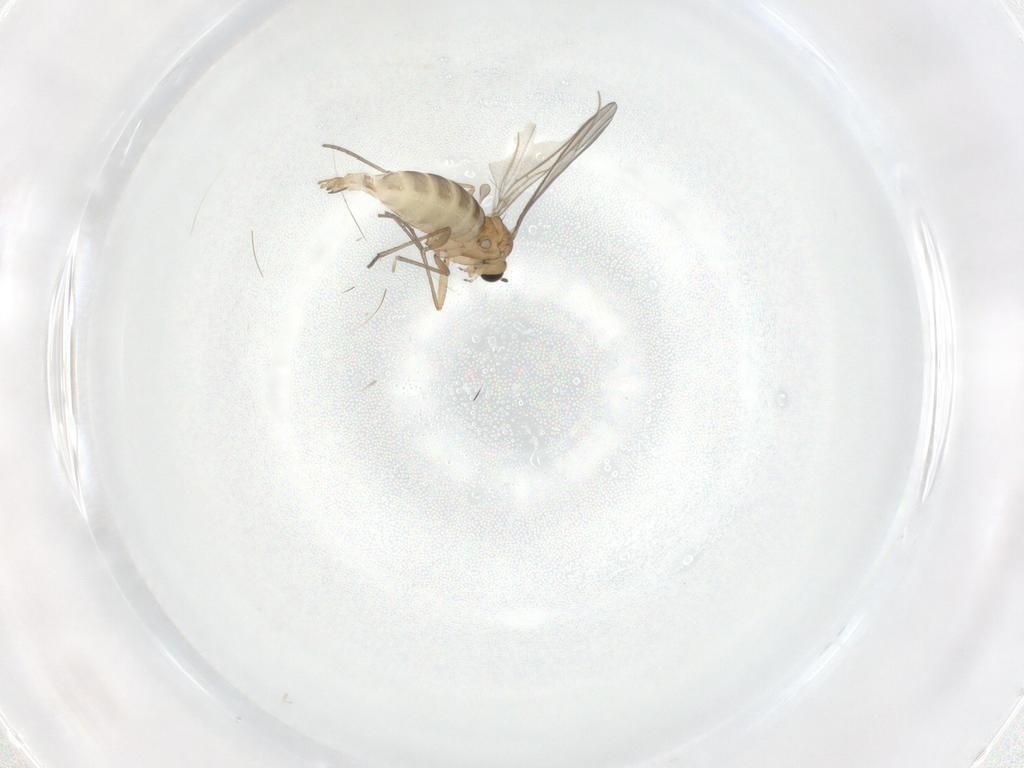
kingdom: Animalia
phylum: Arthropoda
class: Insecta
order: Diptera
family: Sciaridae
